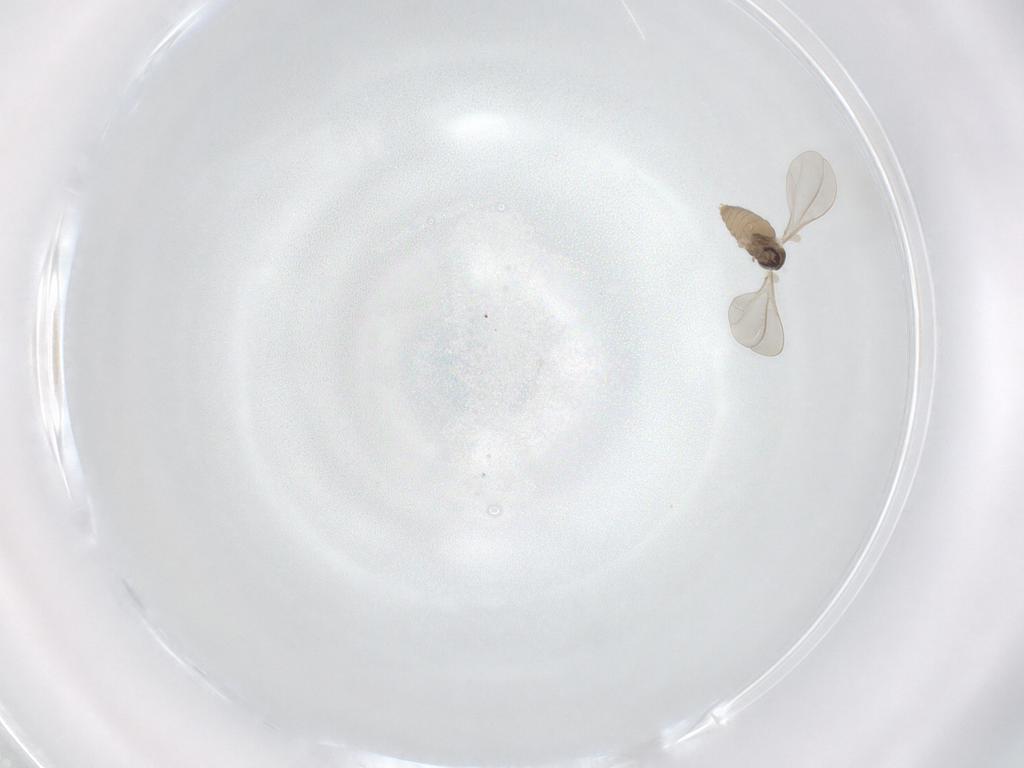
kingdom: Animalia
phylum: Arthropoda
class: Insecta
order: Diptera
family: Cecidomyiidae
